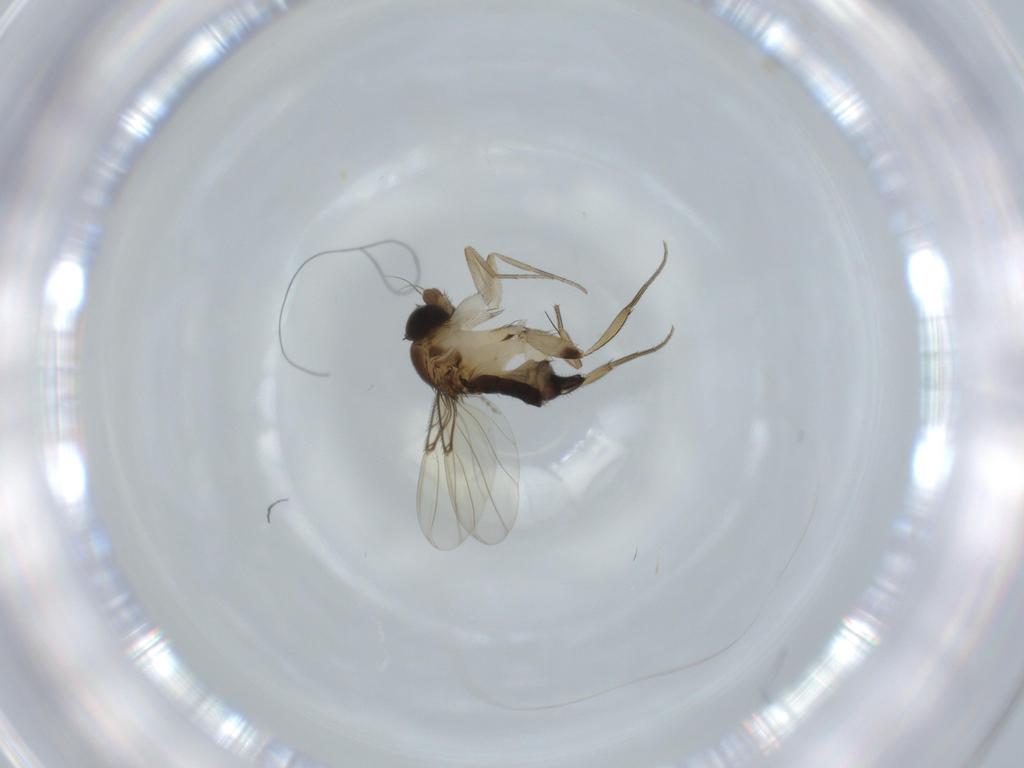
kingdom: Animalia
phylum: Arthropoda
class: Insecta
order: Diptera
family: Phoridae
